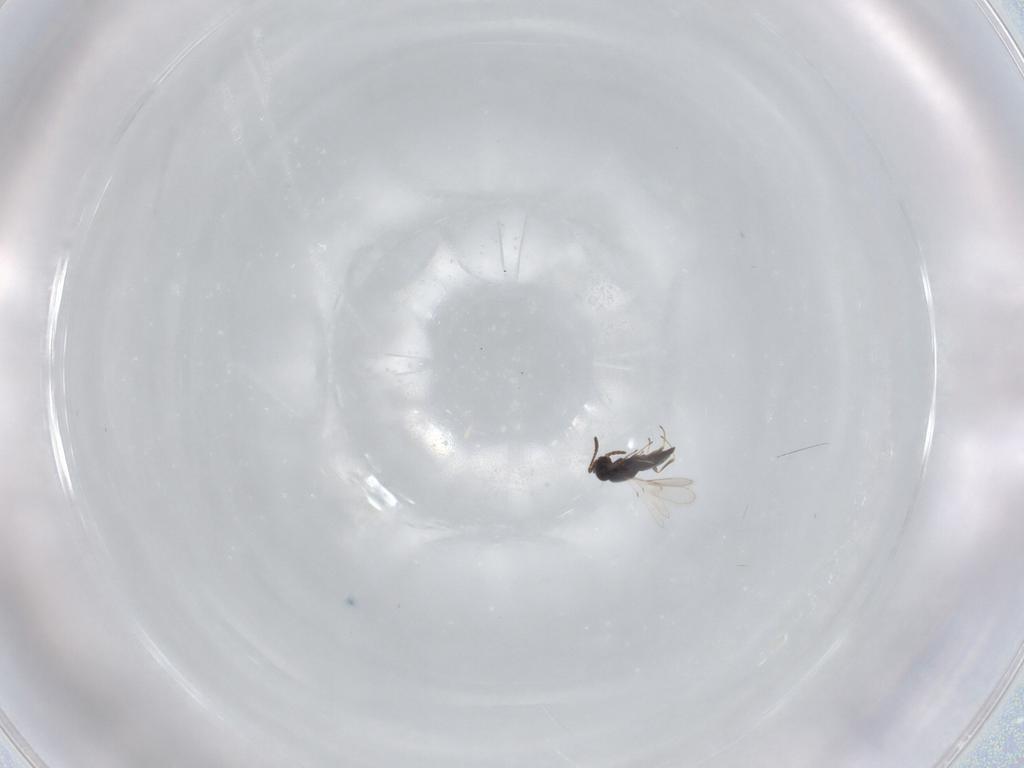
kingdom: Animalia
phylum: Arthropoda
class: Insecta
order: Hymenoptera
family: Scelionidae
